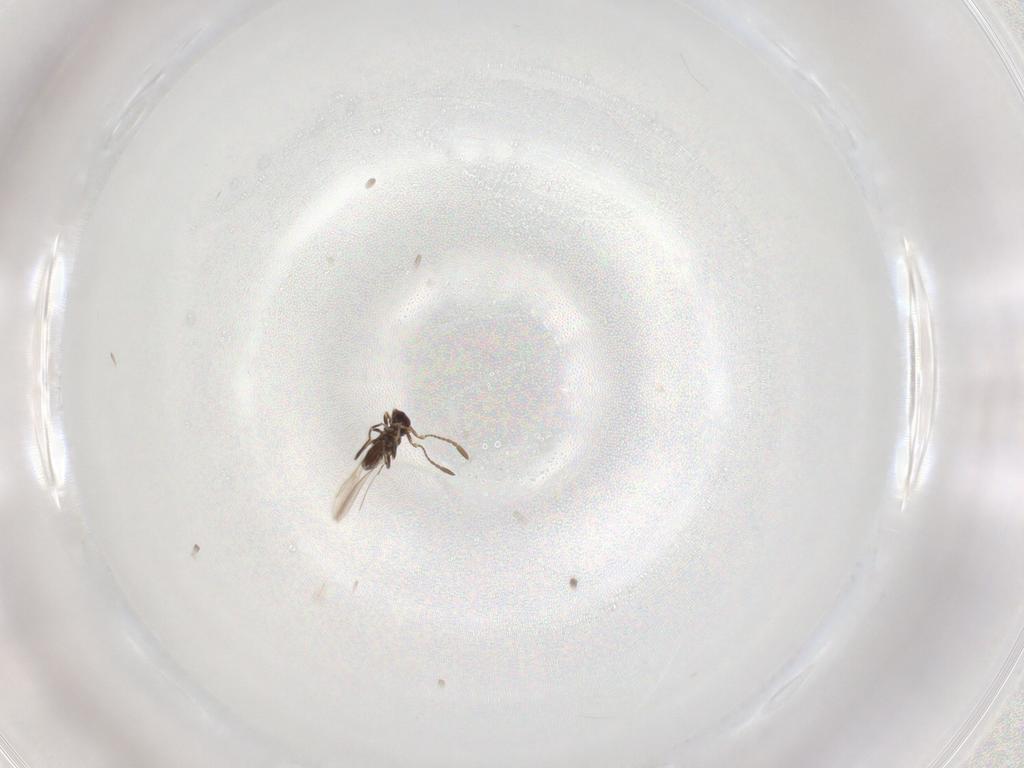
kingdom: Animalia
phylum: Arthropoda
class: Insecta
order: Hymenoptera
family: Mymaridae
